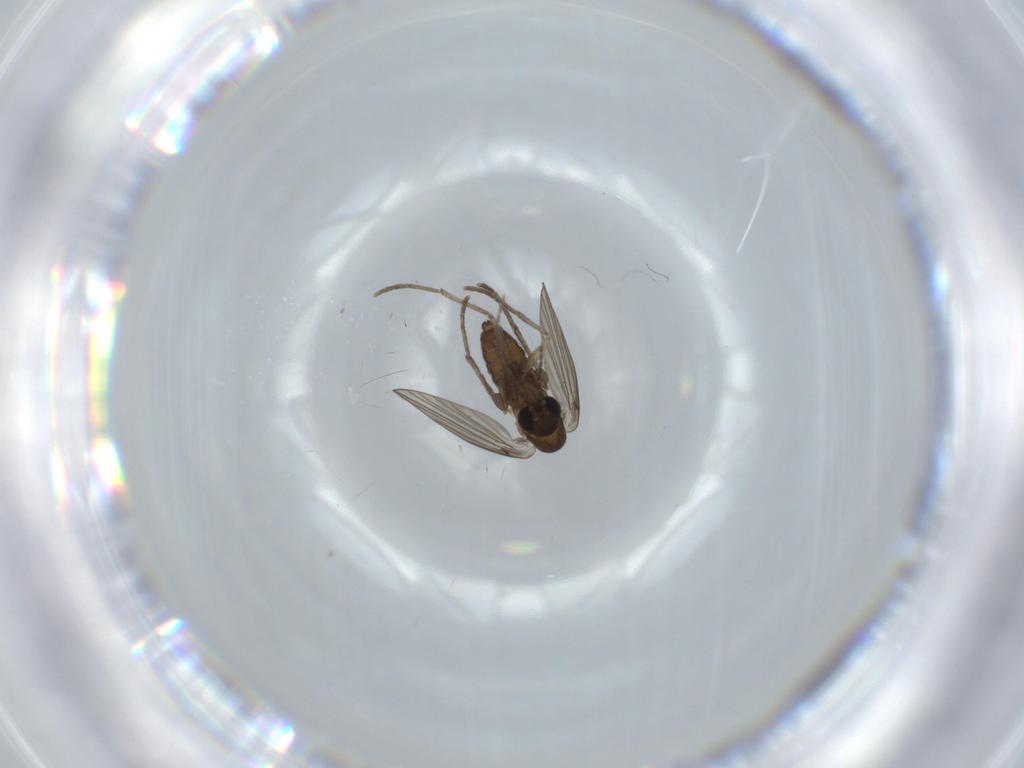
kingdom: Animalia
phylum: Arthropoda
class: Insecta
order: Diptera
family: Psychodidae
